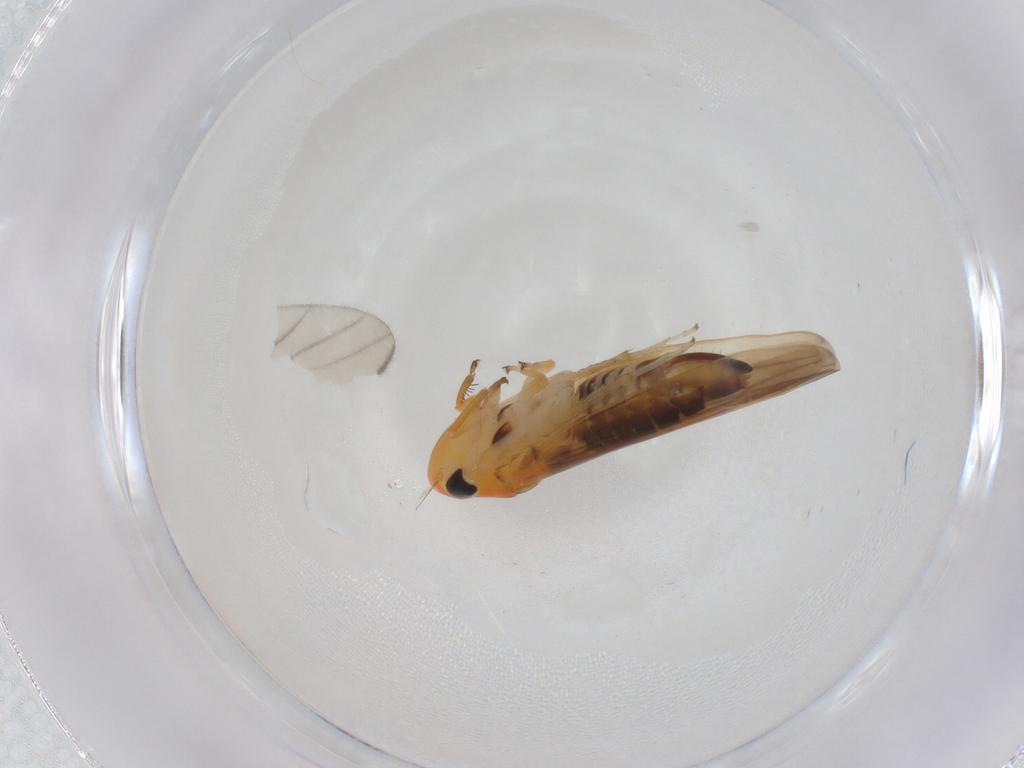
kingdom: Animalia
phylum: Arthropoda
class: Insecta
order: Hemiptera
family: Cicadellidae
